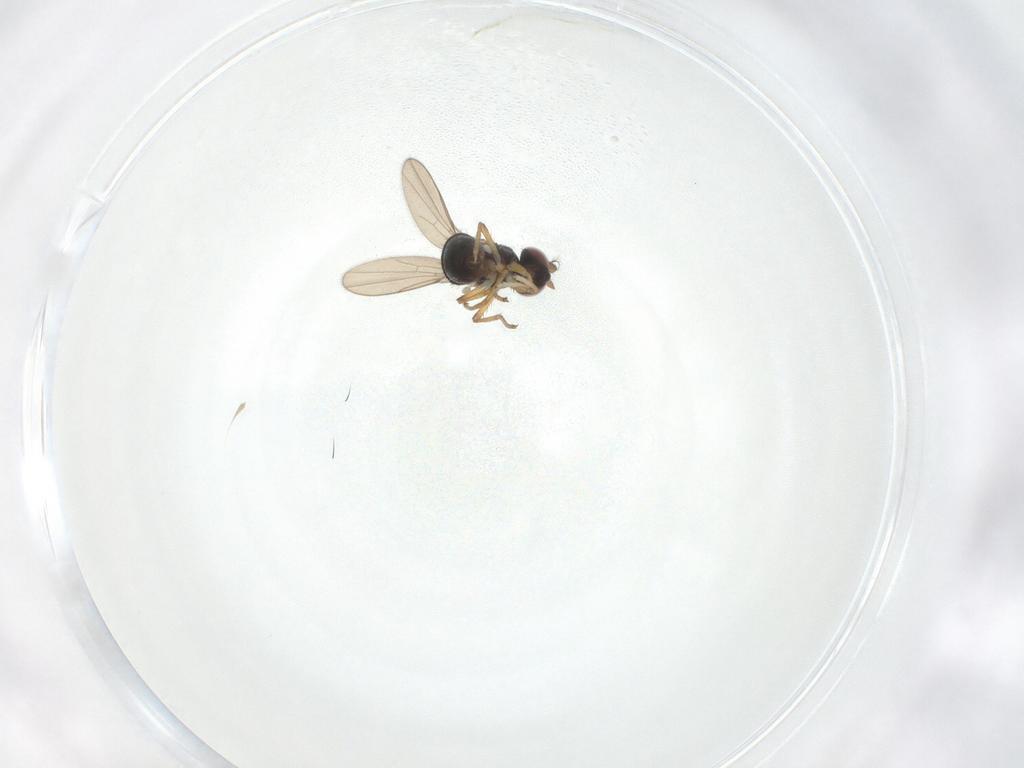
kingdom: Animalia
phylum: Arthropoda
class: Insecta
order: Diptera
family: Ephydridae
